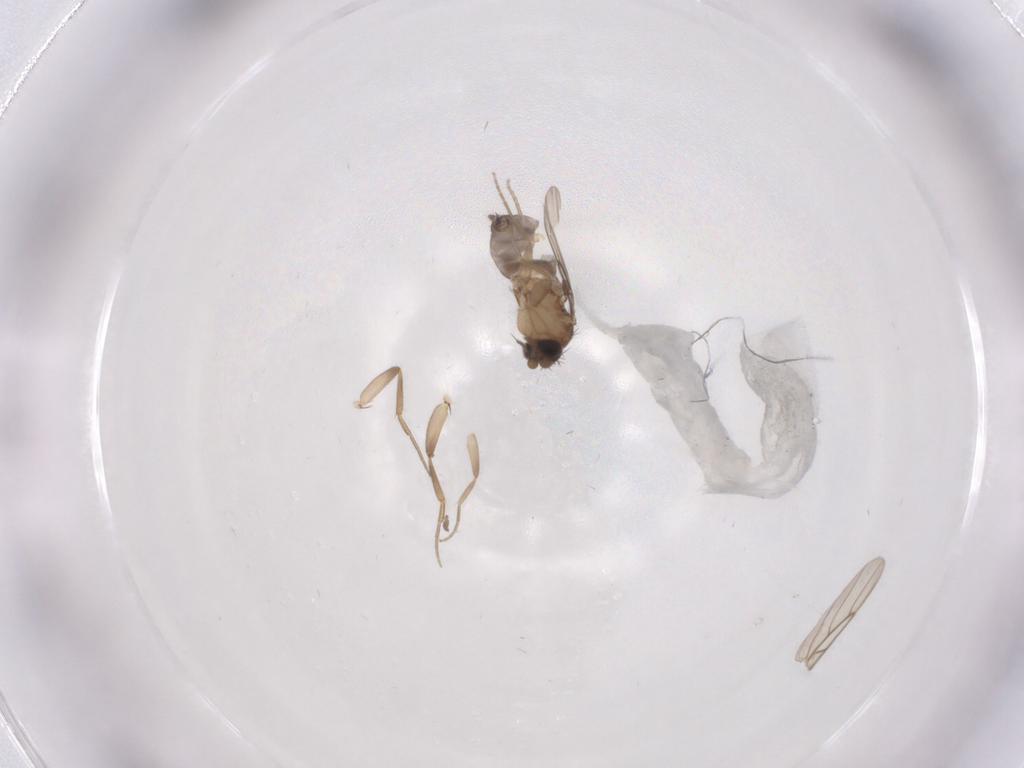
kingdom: Animalia
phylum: Arthropoda
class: Insecta
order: Diptera
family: Phoridae
